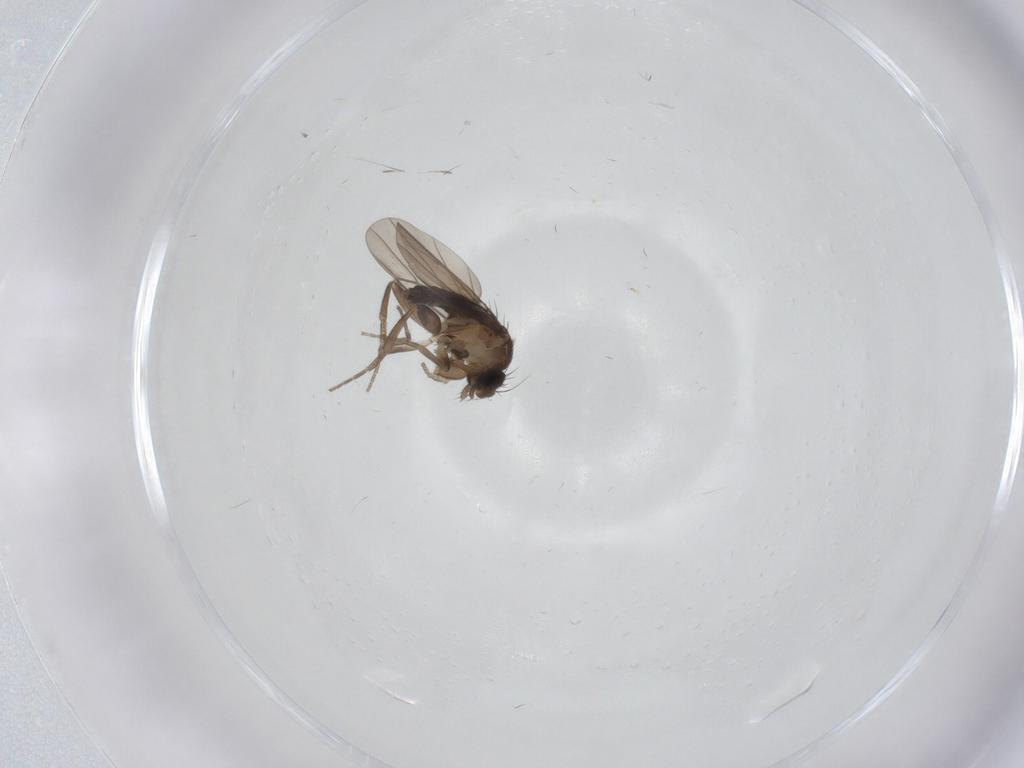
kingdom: Animalia
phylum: Arthropoda
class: Insecta
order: Diptera
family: Phoridae
